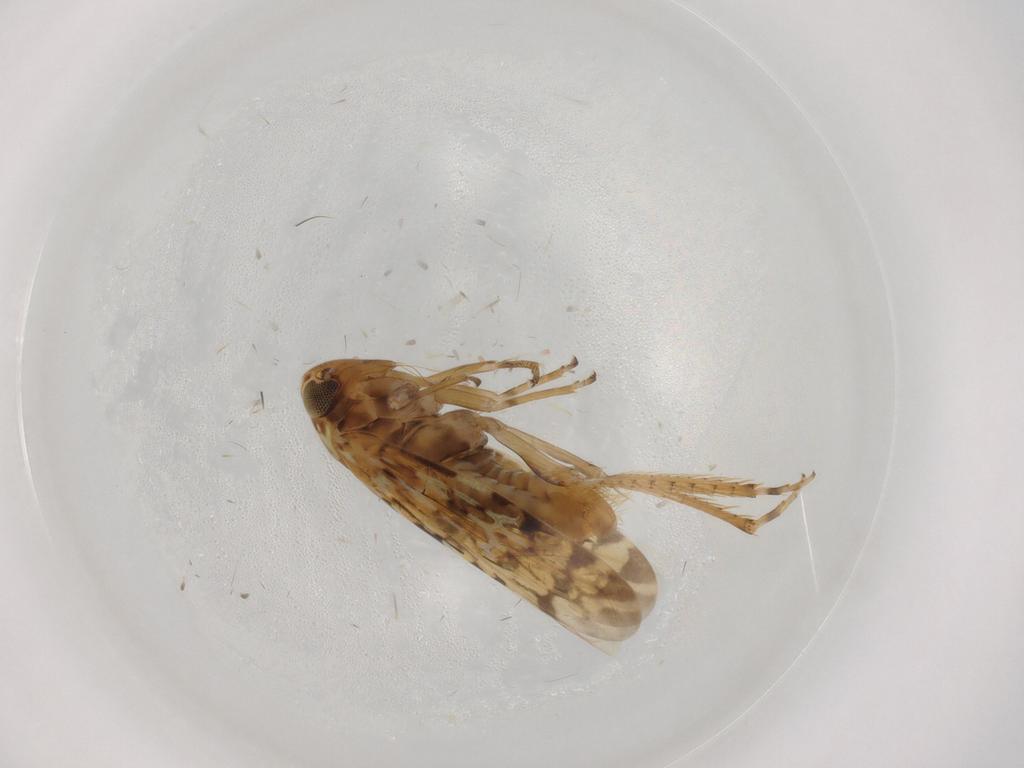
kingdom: Animalia
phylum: Arthropoda
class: Insecta
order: Hemiptera
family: Cicadellidae
